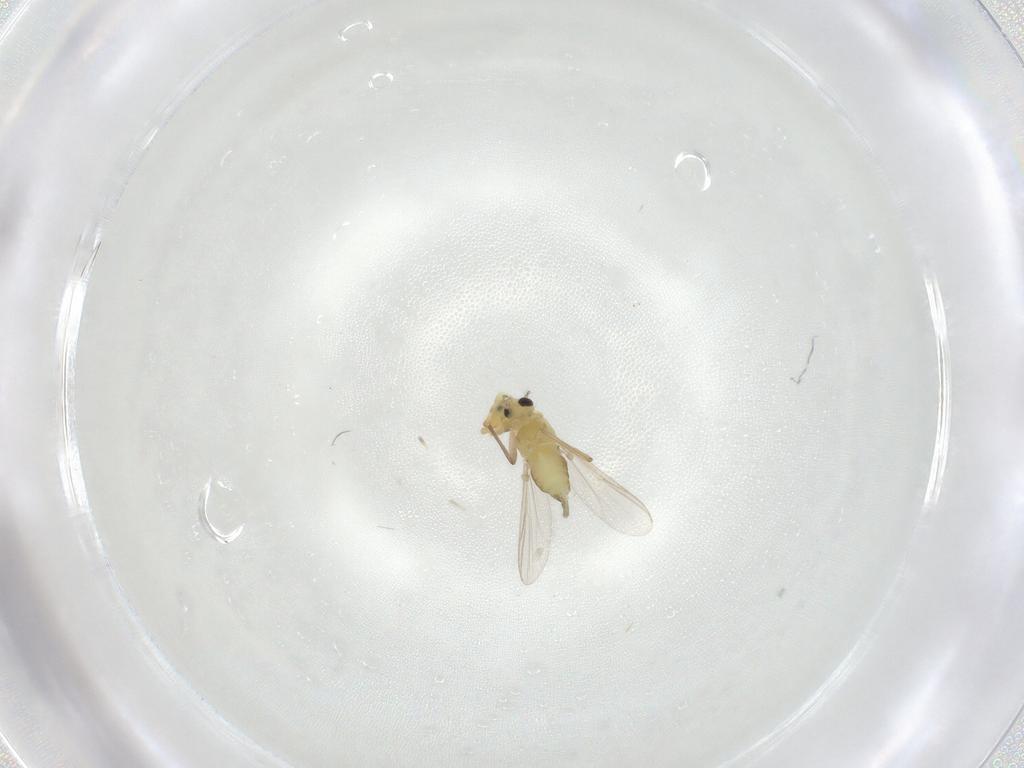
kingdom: Animalia
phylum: Arthropoda
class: Insecta
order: Diptera
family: Chironomidae
